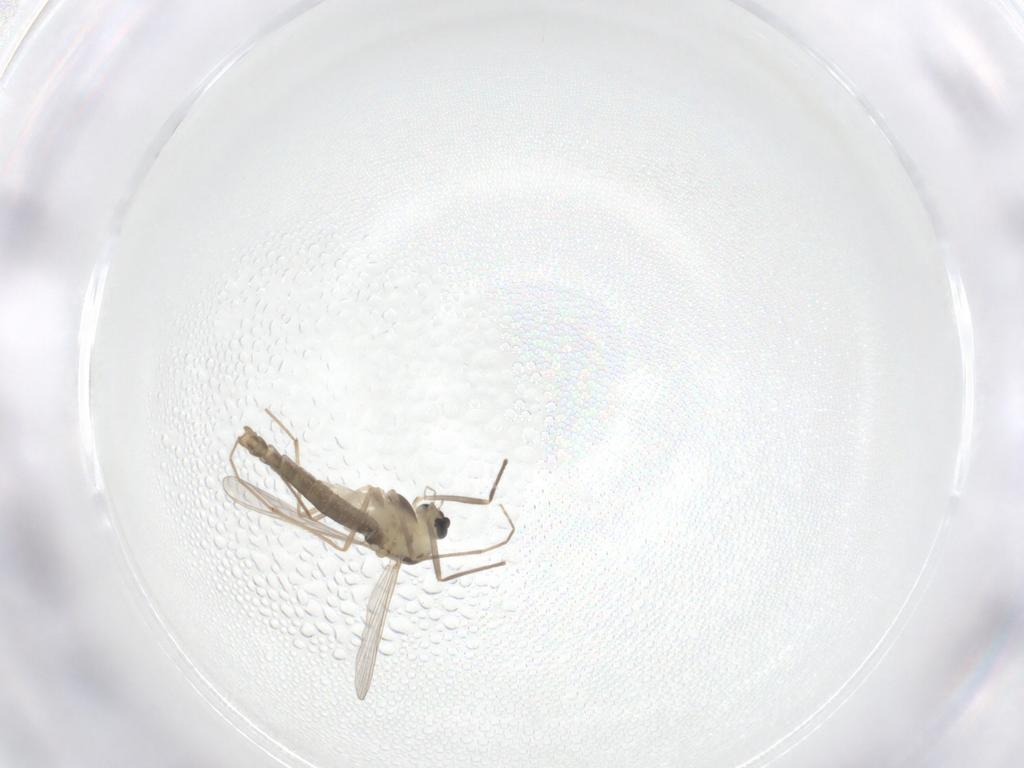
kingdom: Animalia
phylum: Arthropoda
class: Insecta
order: Diptera
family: Chironomidae
